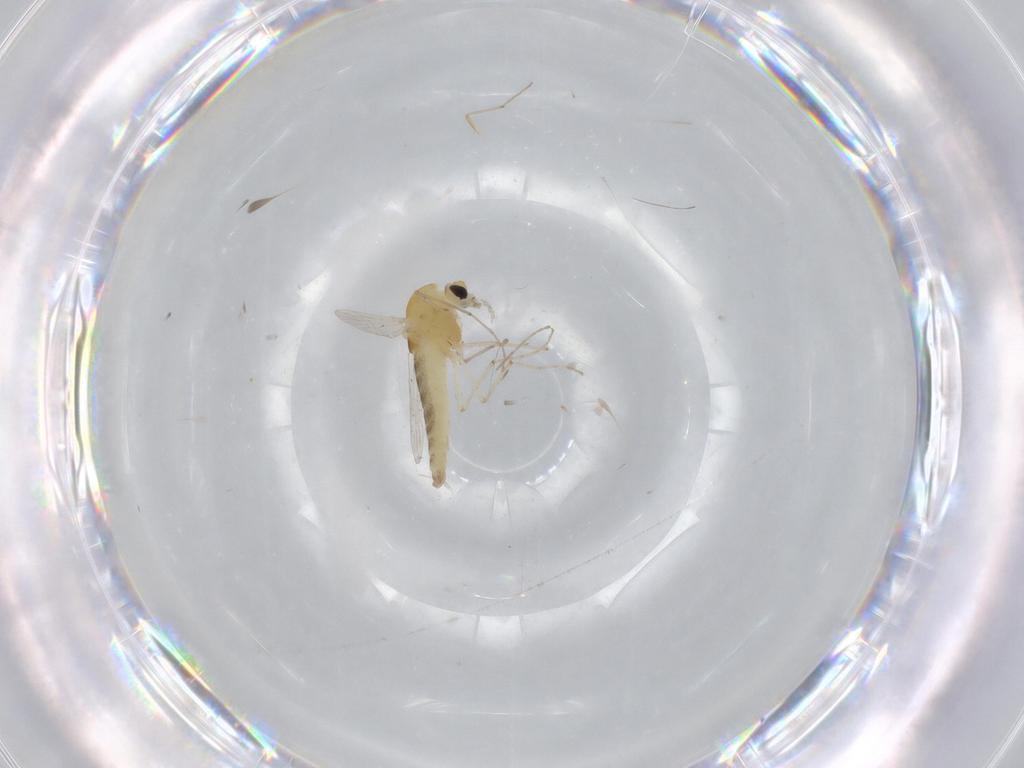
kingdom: Animalia
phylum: Arthropoda
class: Insecta
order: Diptera
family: Chironomidae
